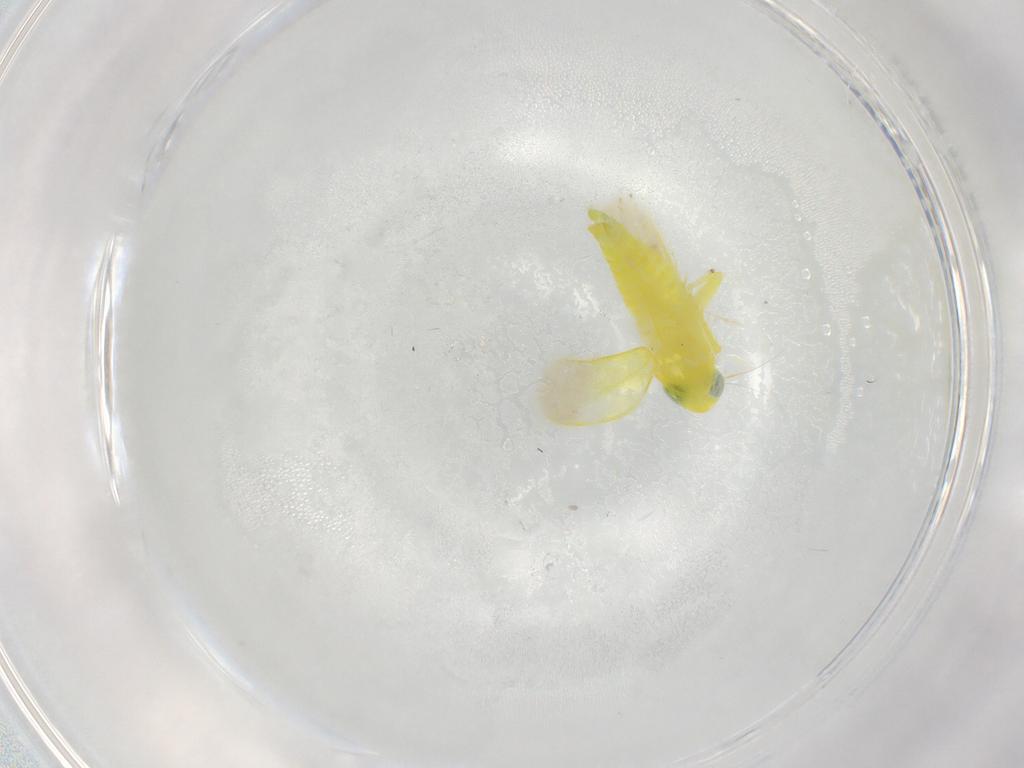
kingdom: Animalia
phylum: Arthropoda
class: Insecta
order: Hemiptera
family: Cicadellidae
